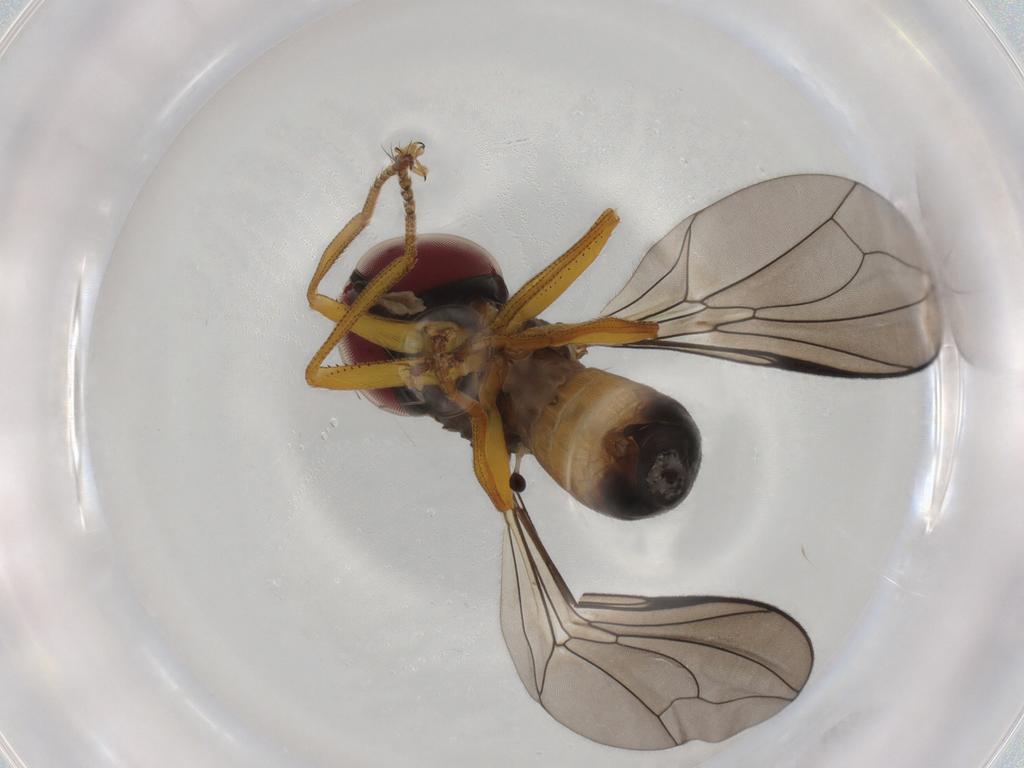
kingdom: Animalia
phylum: Arthropoda
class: Insecta
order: Diptera
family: Pipunculidae
